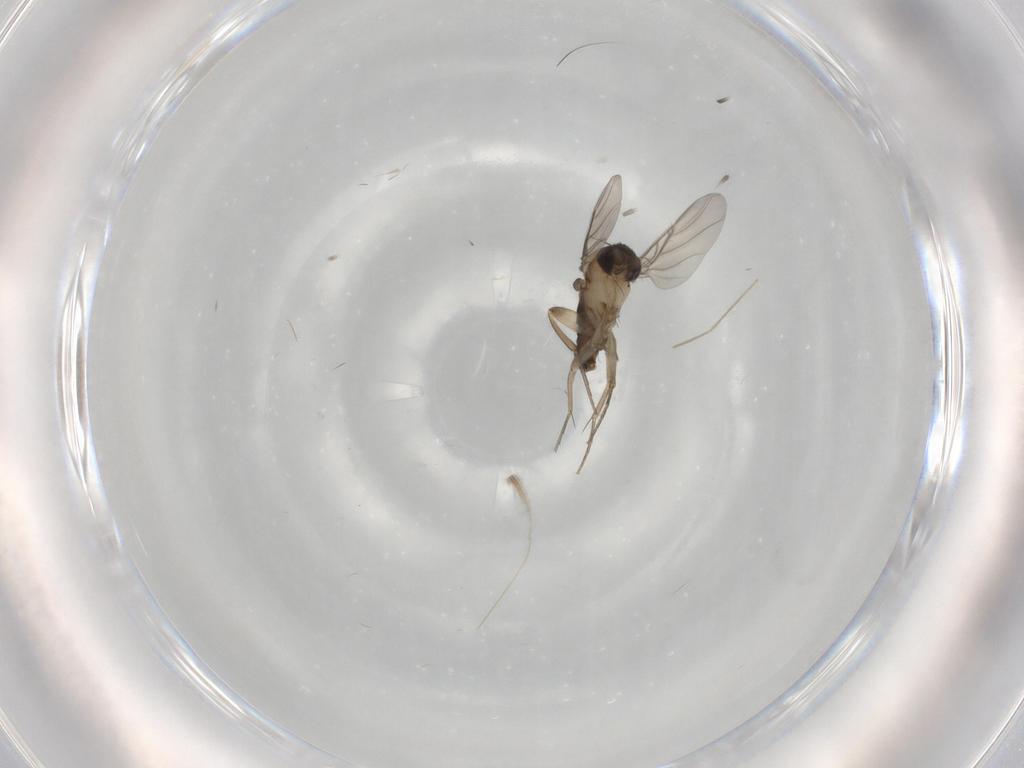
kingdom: Animalia
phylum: Arthropoda
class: Insecta
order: Diptera
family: Phoridae
